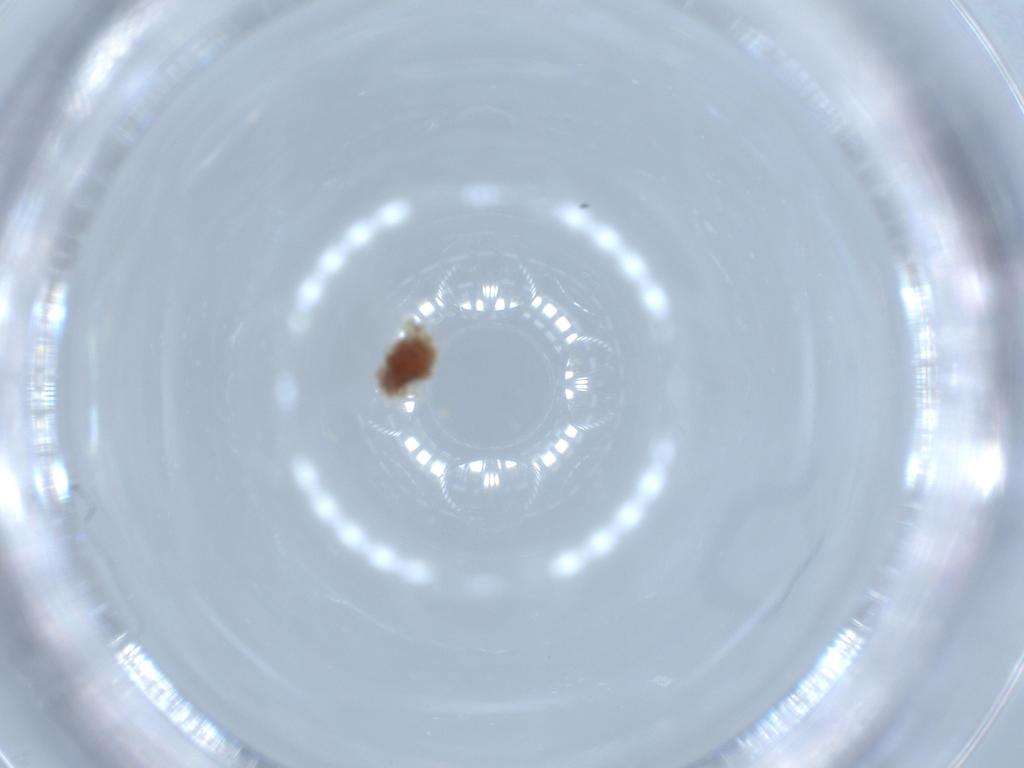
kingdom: Animalia
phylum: Arthropoda
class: Insecta
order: Lepidoptera
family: Gelechiidae
